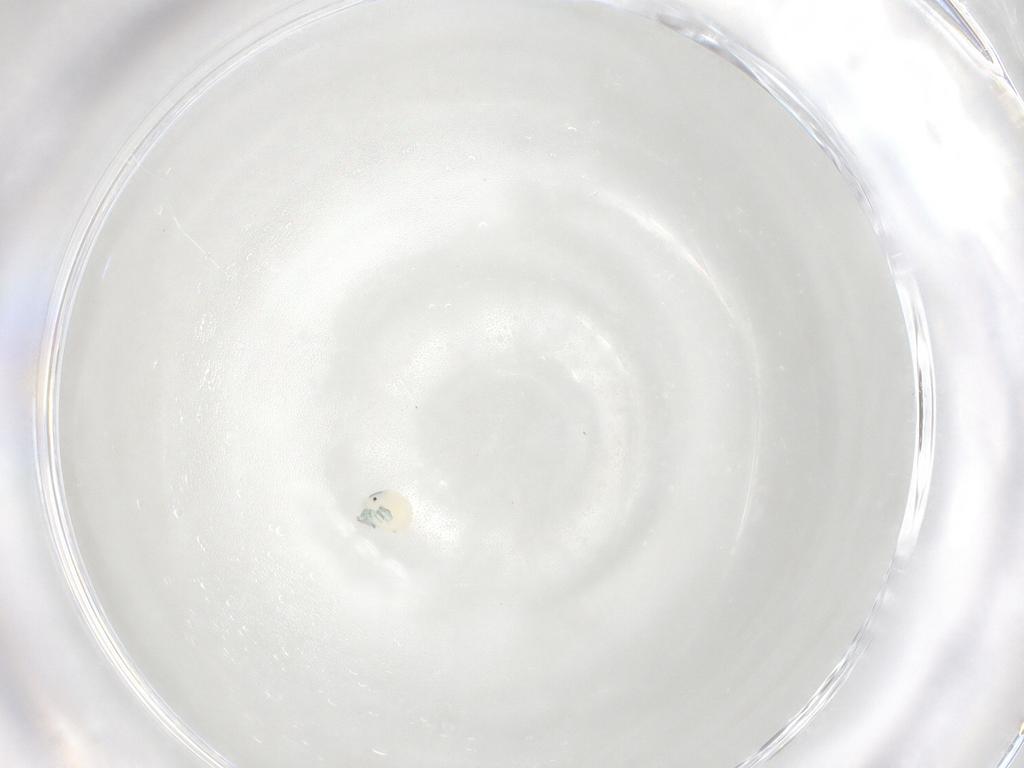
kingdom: Animalia
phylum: Arthropoda
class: Arachnida
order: Trombidiformes
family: Arrenuridae
